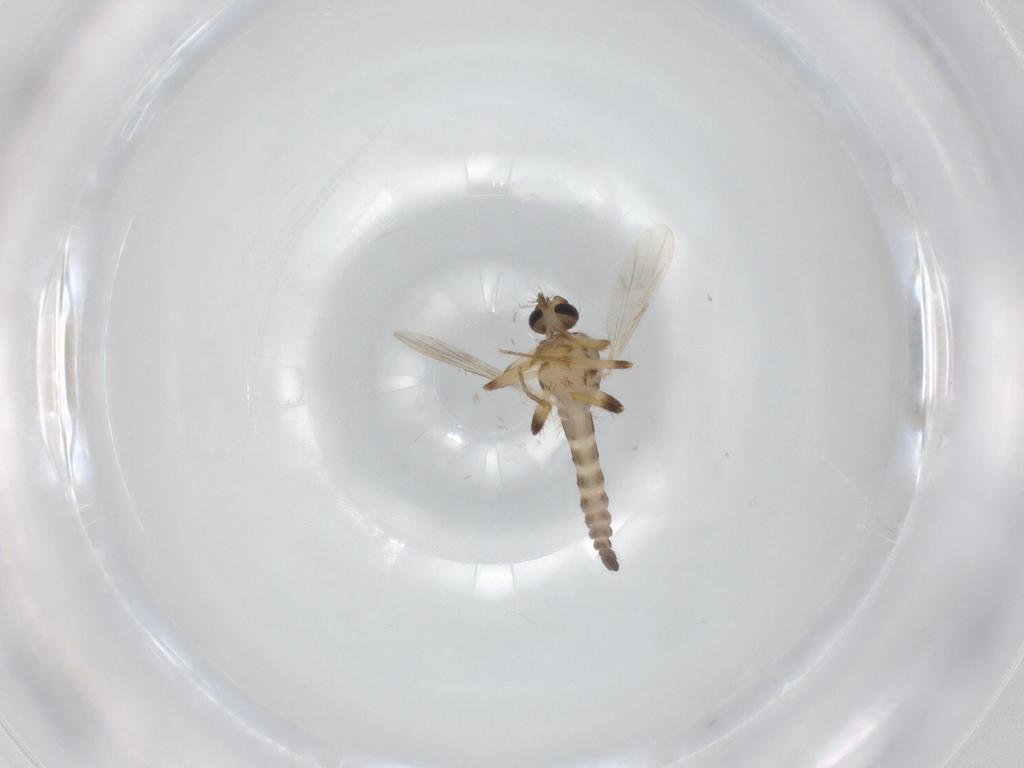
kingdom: Animalia
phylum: Arthropoda
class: Insecta
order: Diptera
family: Ceratopogonidae
